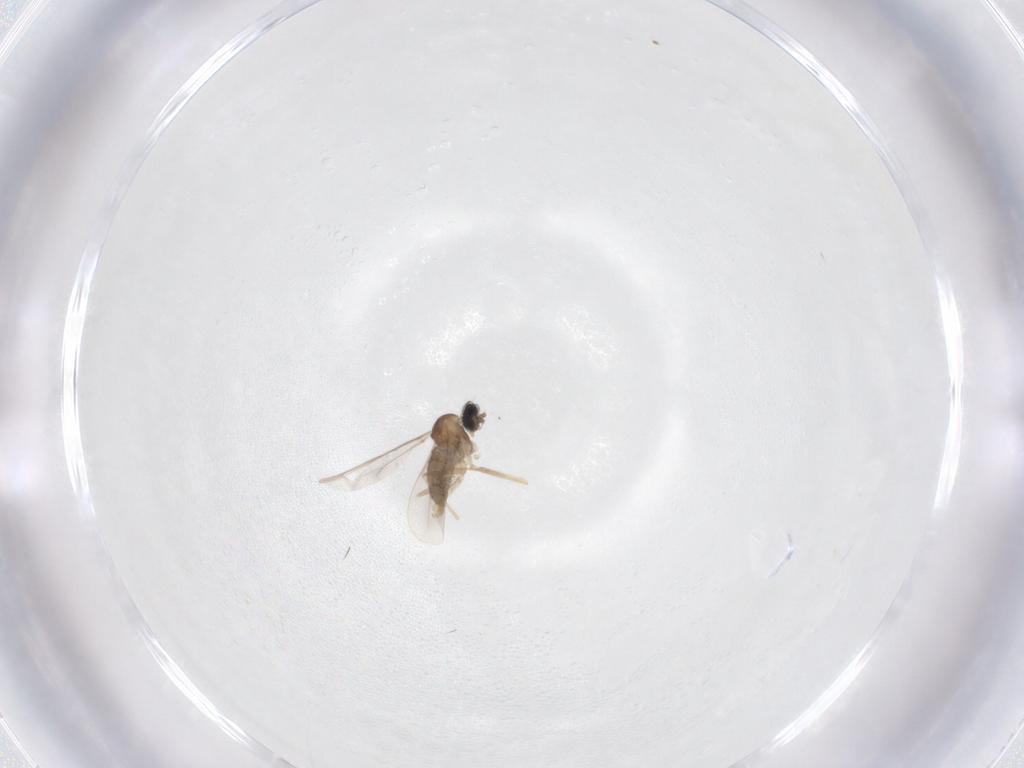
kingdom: Animalia
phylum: Arthropoda
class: Insecta
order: Diptera
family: Cecidomyiidae
